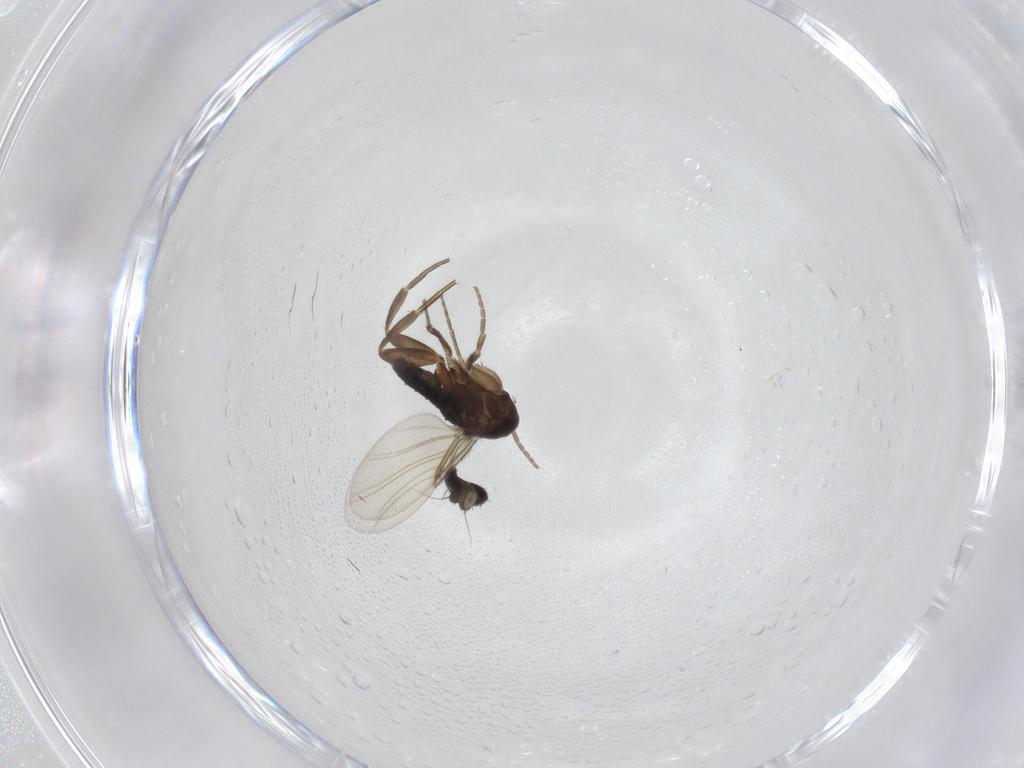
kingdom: Animalia
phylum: Arthropoda
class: Insecta
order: Diptera
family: Phoridae
